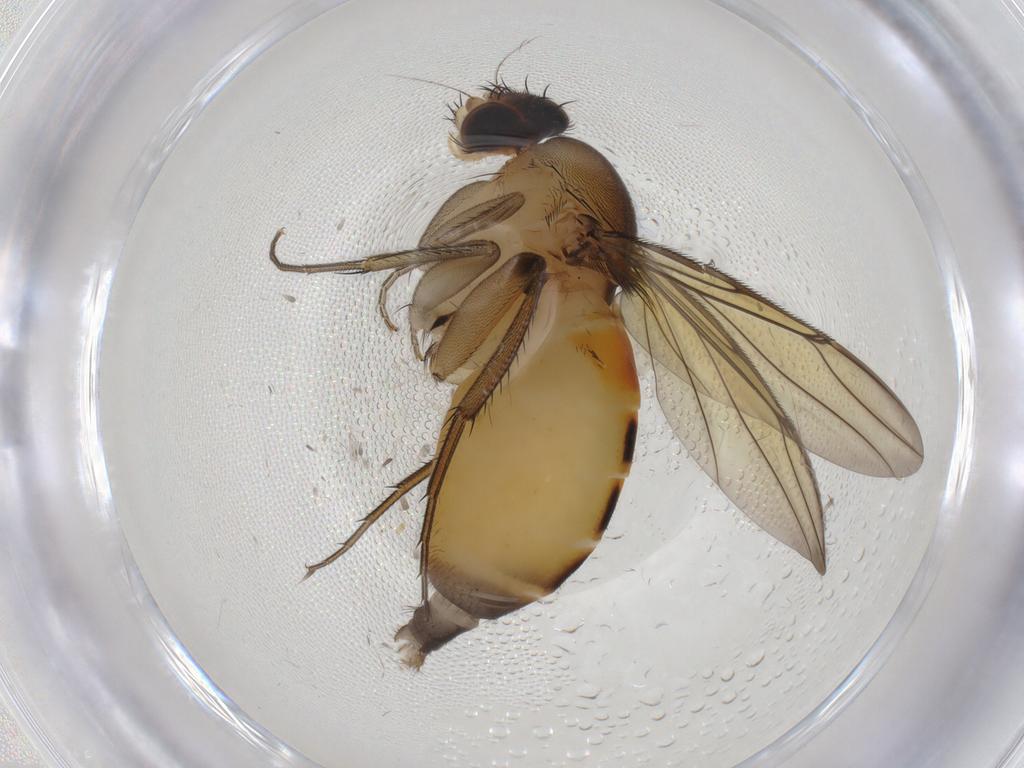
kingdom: Animalia
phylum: Arthropoda
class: Insecta
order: Diptera
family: Phoridae
